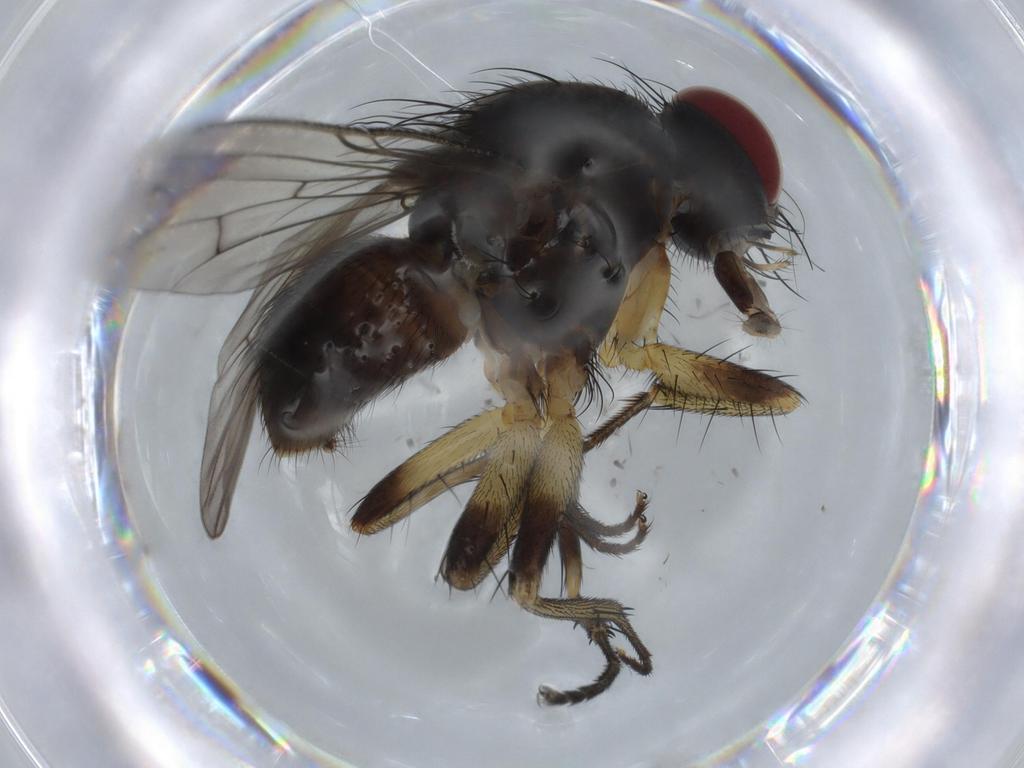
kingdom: Animalia
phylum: Arthropoda
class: Insecta
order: Diptera
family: Ceratopogonidae
